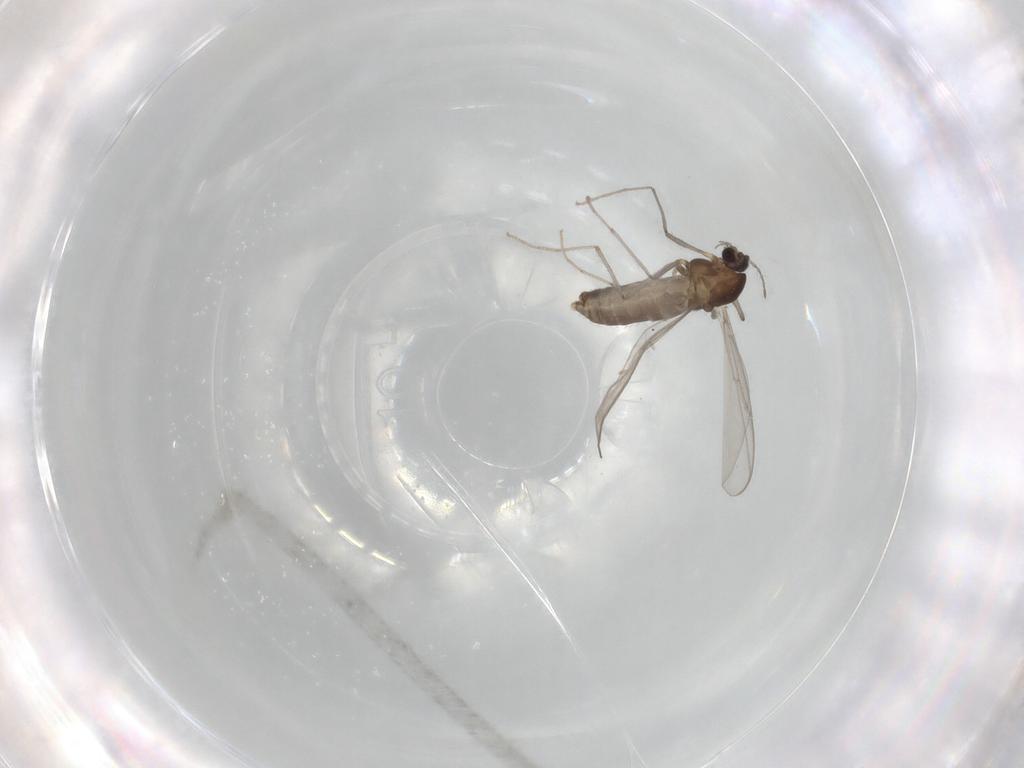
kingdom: Animalia
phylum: Arthropoda
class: Insecta
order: Diptera
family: Chironomidae
